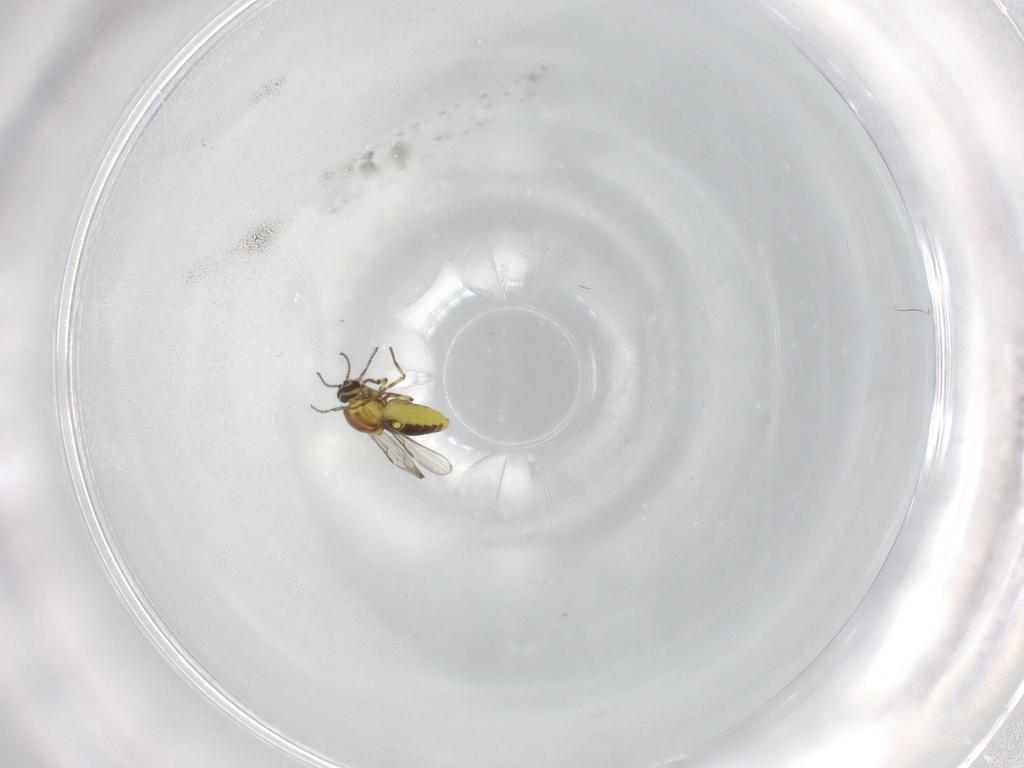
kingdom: Animalia
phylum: Arthropoda
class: Insecta
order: Diptera
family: Ceratopogonidae
